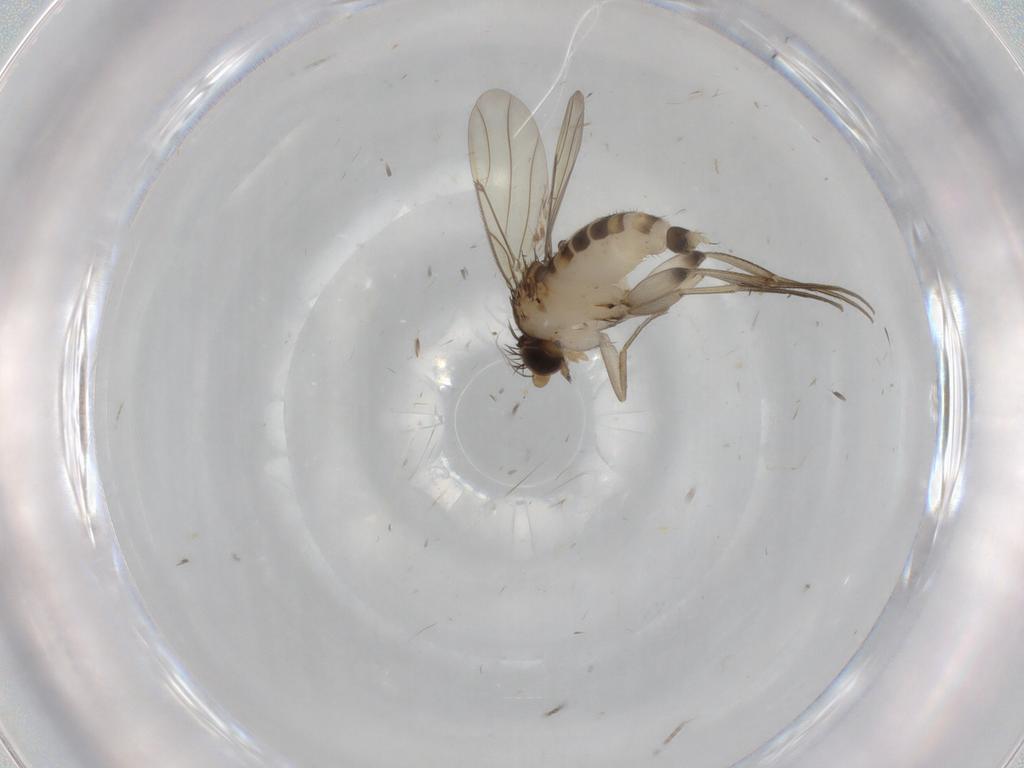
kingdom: Animalia
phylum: Arthropoda
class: Insecta
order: Diptera
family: Phoridae
